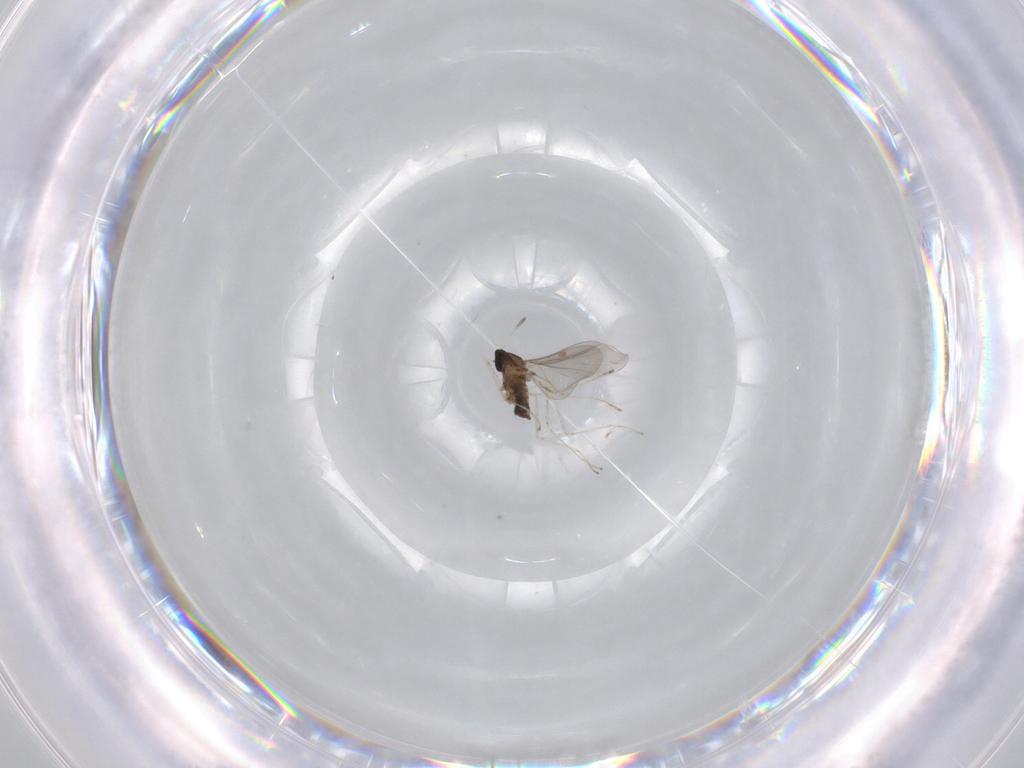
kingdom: Animalia
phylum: Arthropoda
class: Insecta
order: Diptera
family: Cecidomyiidae
